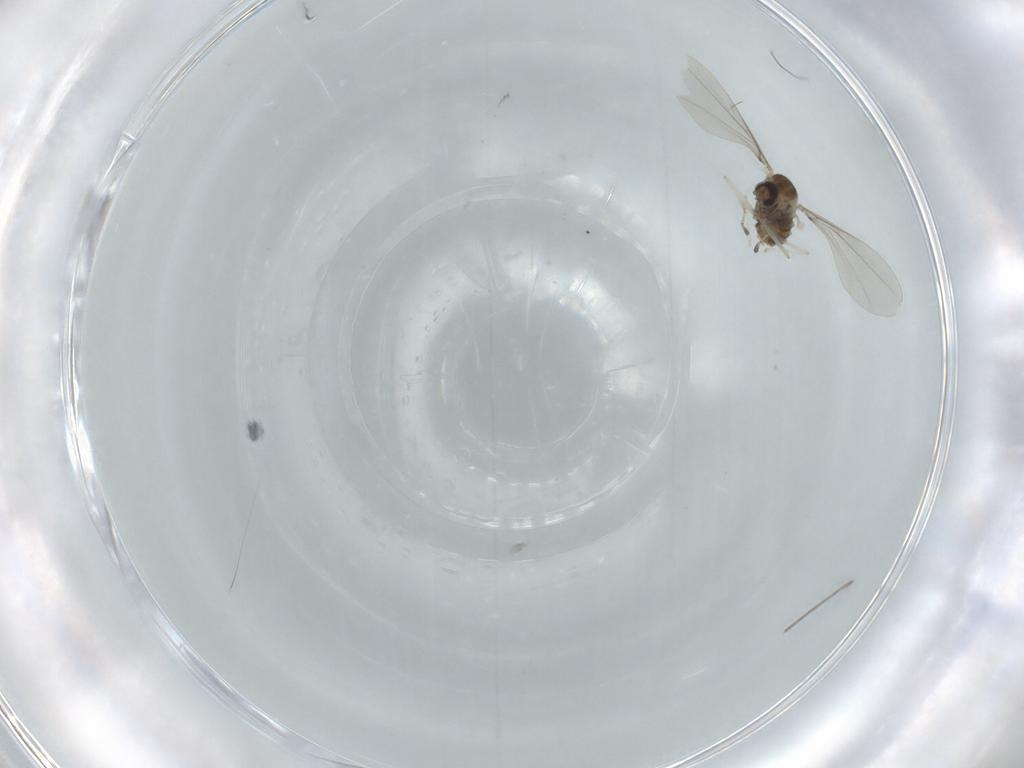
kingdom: Animalia
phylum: Arthropoda
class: Insecta
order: Diptera
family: Cecidomyiidae
